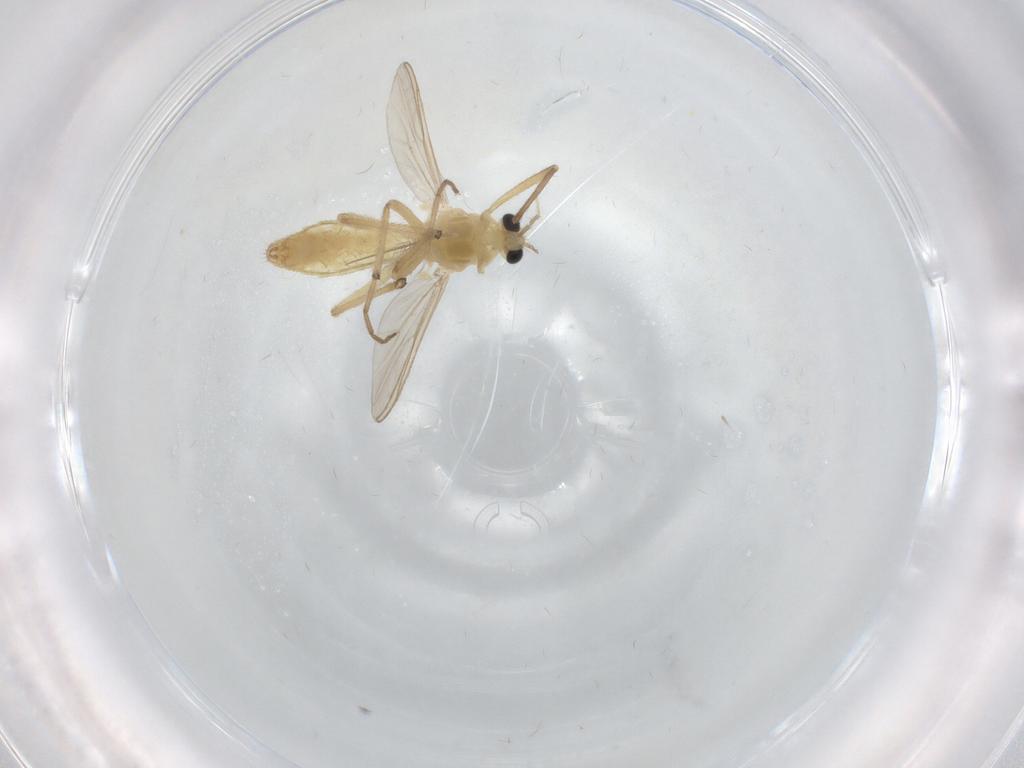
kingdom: Animalia
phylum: Arthropoda
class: Insecta
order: Diptera
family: Chironomidae
